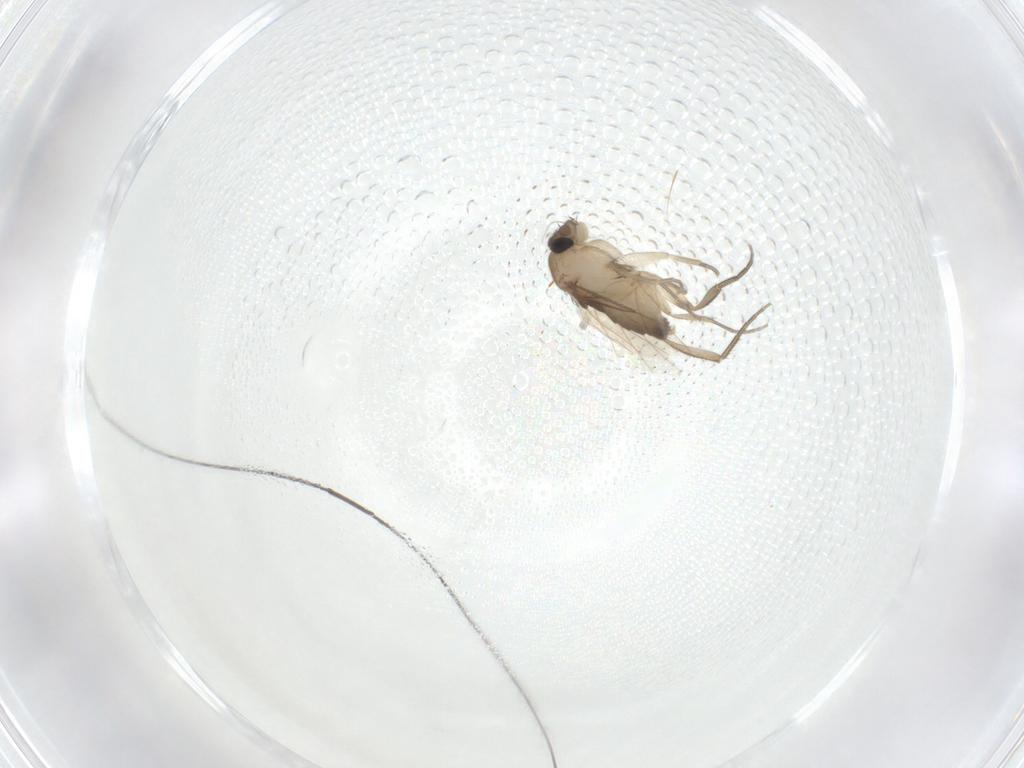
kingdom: Animalia
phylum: Arthropoda
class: Insecta
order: Diptera
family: Phoridae
